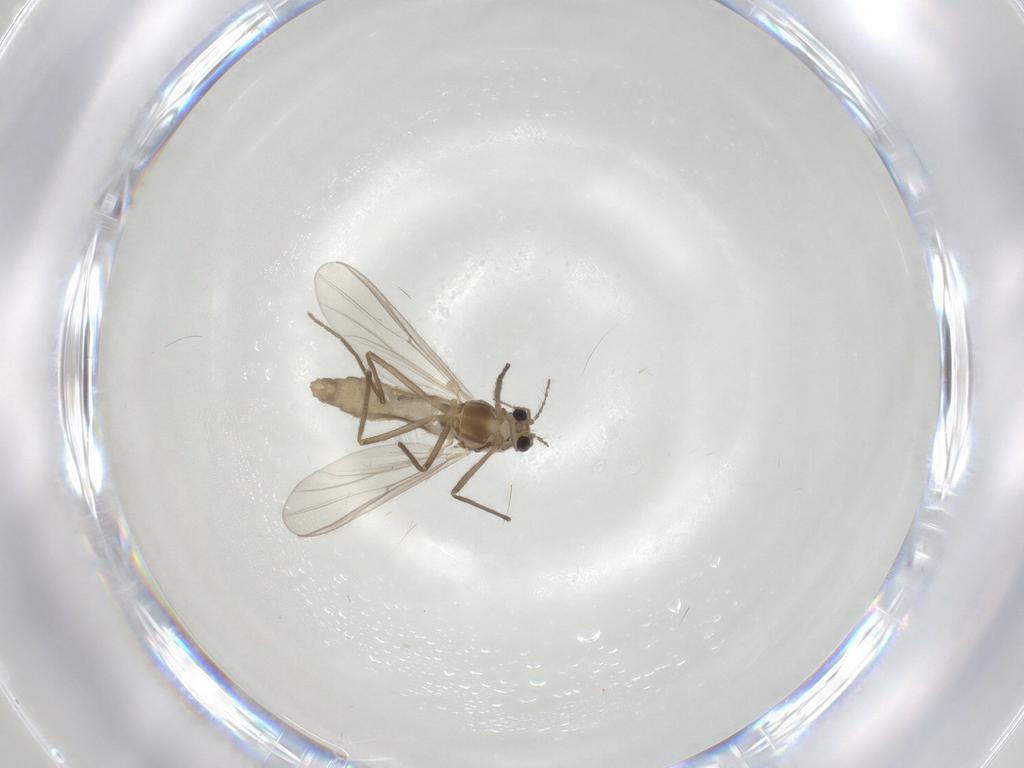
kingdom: Animalia
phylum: Arthropoda
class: Insecta
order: Diptera
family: Chironomidae
